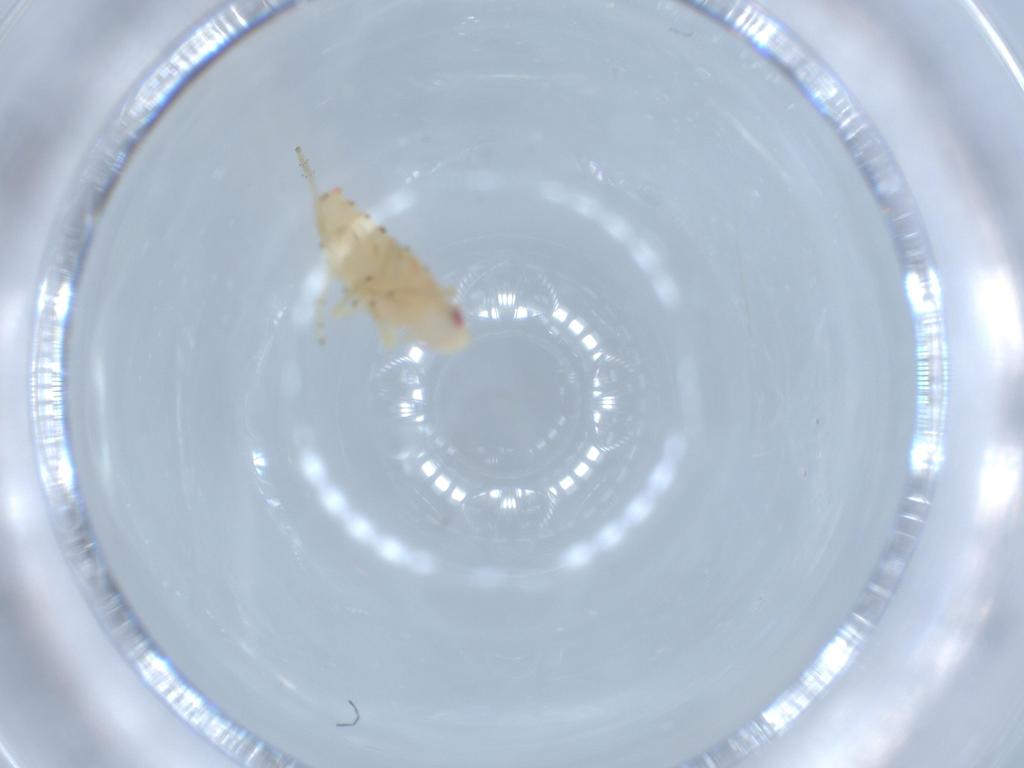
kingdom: Animalia
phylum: Arthropoda
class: Insecta
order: Hemiptera
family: Tropiduchidae
